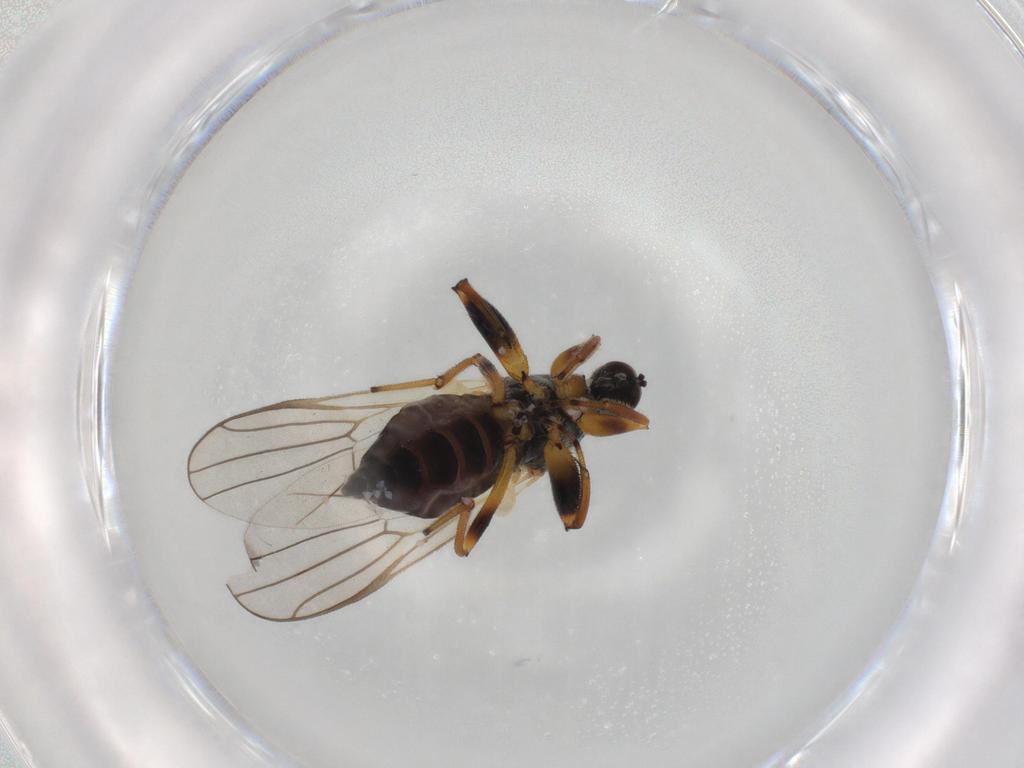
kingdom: Animalia
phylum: Arthropoda
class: Insecta
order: Diptera
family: Hybotidae
